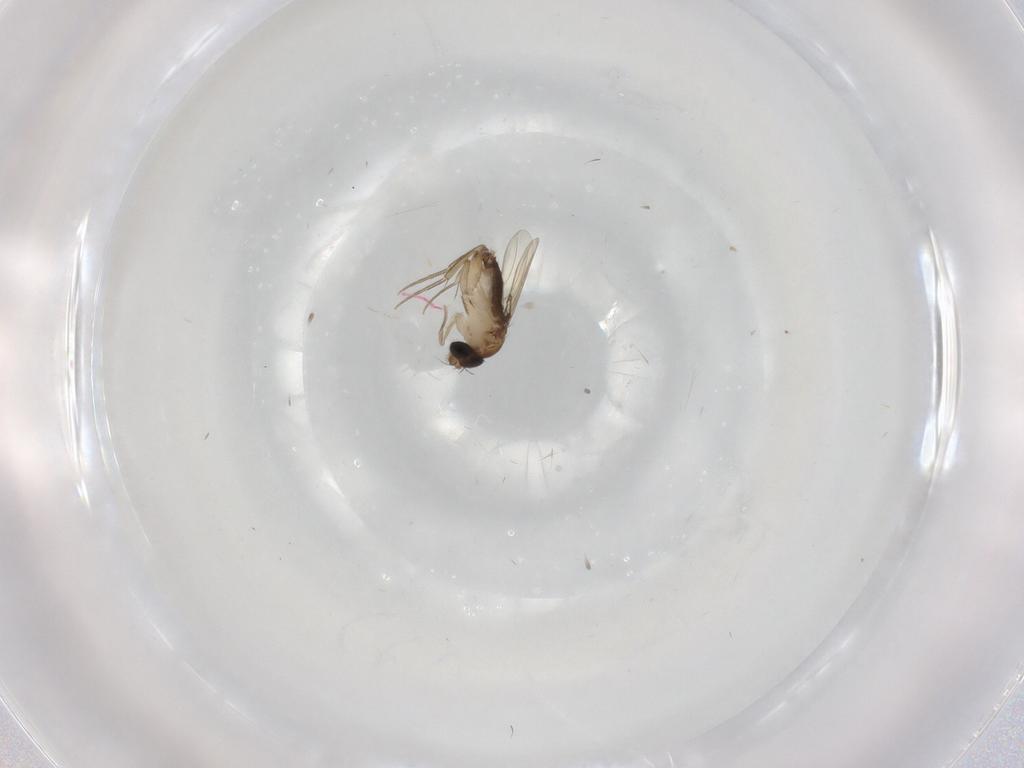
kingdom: Animalia
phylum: Arthropoda
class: Insecta
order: Diptera
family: Phoridae
